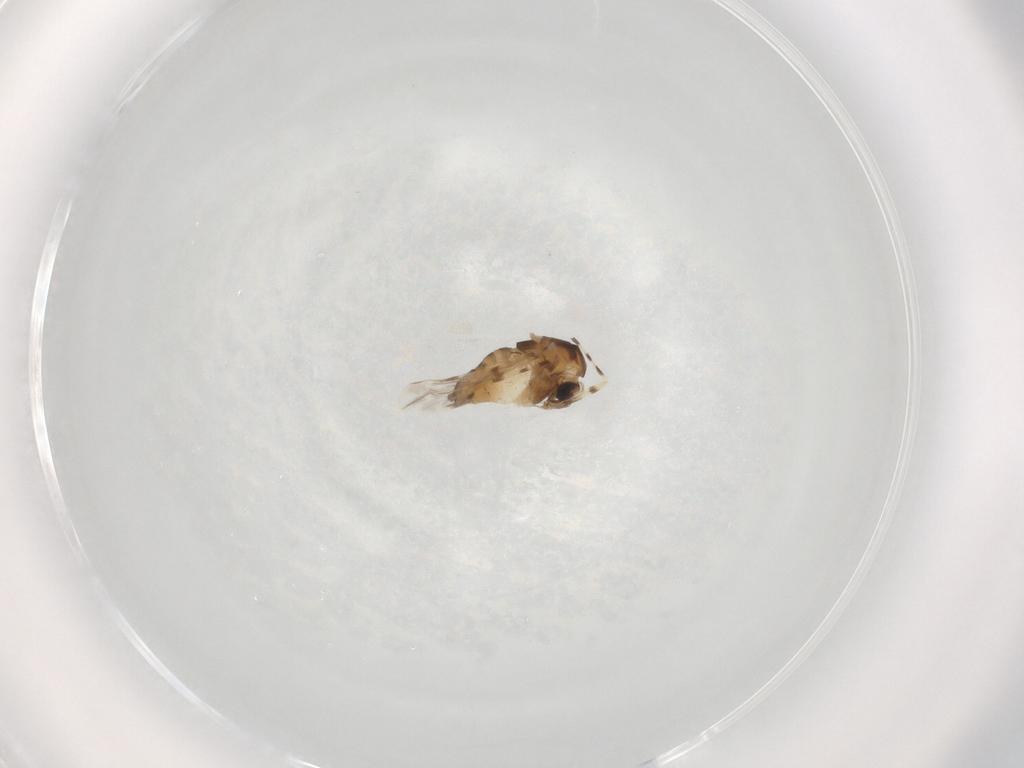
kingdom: Animalia
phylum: Arthropoda
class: Insecta
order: Diptera
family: Chironomidae
